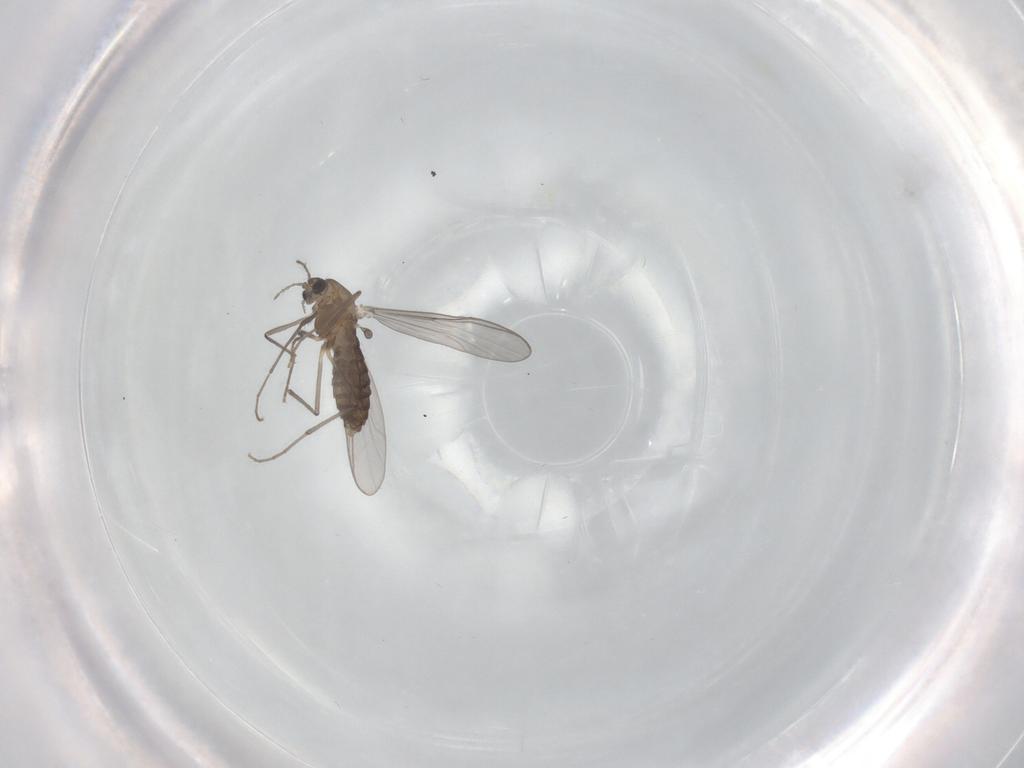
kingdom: Animalia
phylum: Arthropoda
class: Insecta
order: Diptera
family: Chironomidae
